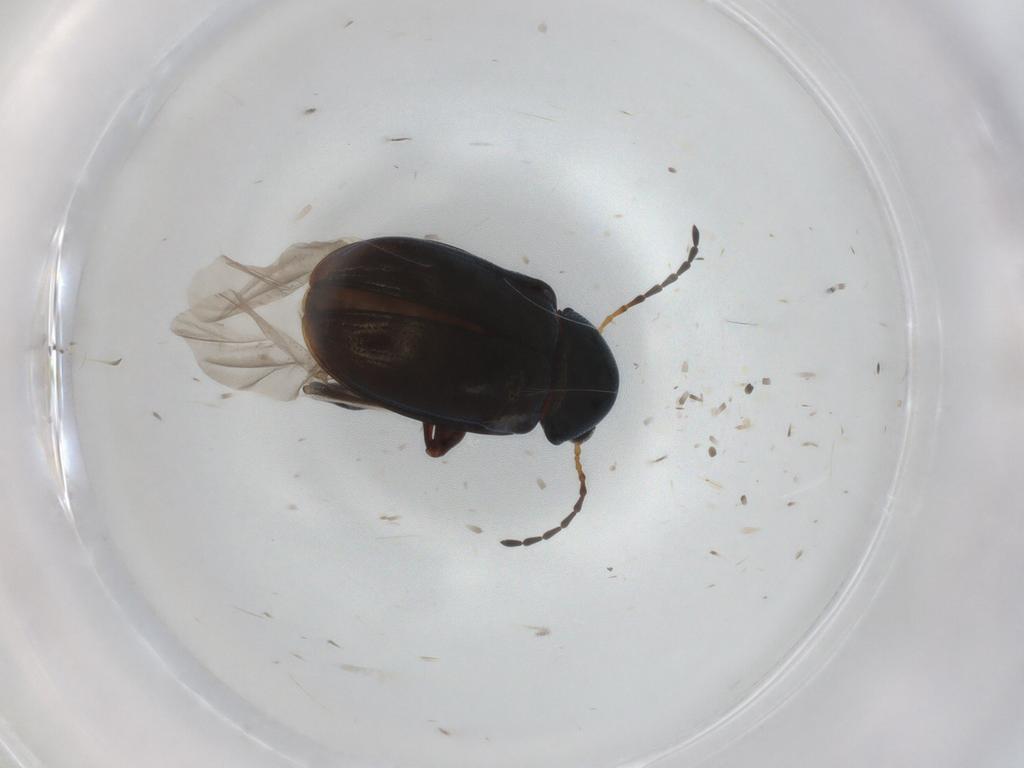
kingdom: Animalia
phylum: Arthropoda
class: Insecta
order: Coleoptera
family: Chrysomelidae
